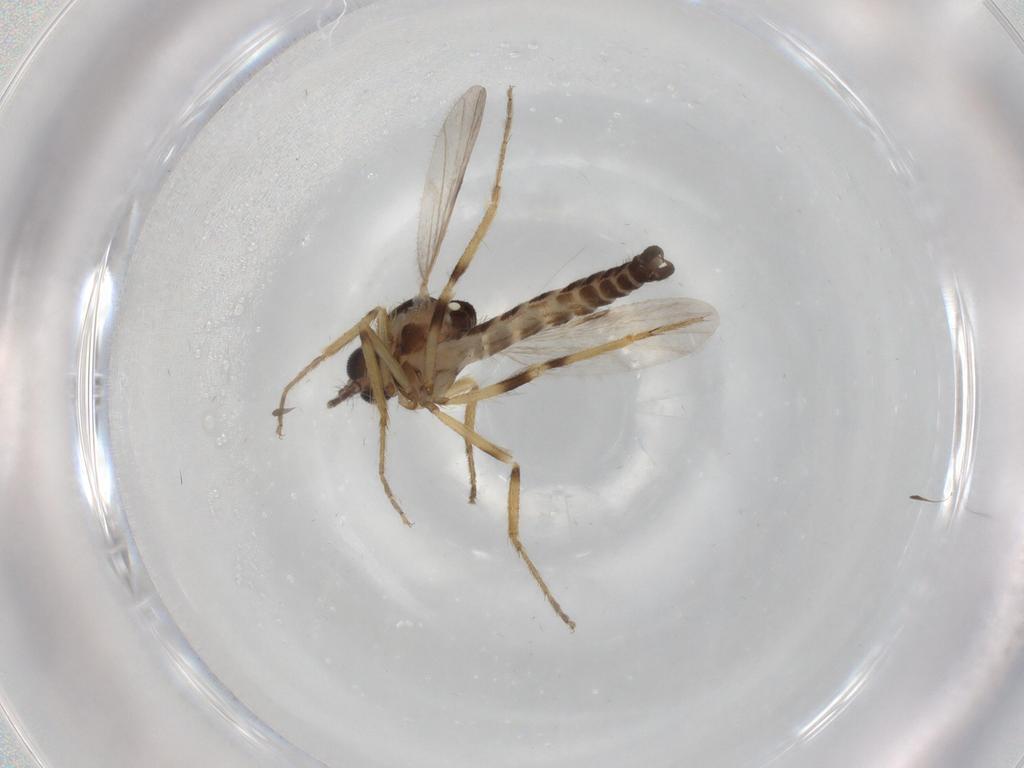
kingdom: Animalia
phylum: Arthropoda
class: Insecta
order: Diptera
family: Ceratopogonidae
